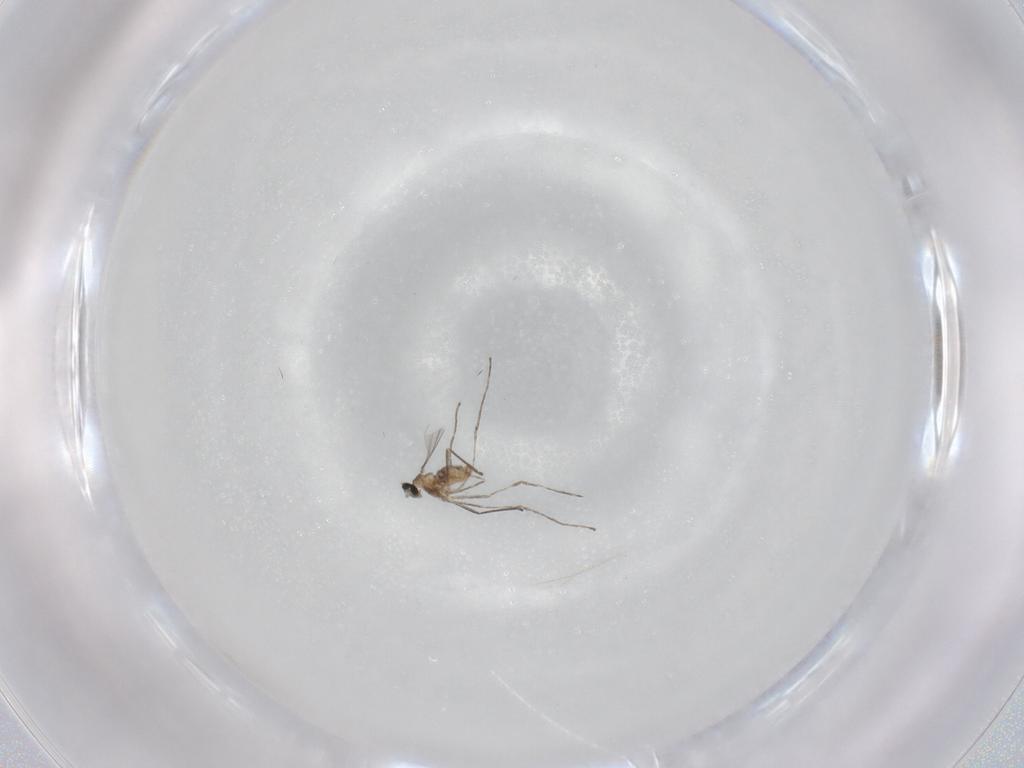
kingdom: Animalia
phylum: Arthropoda
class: Insecta
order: Diptera
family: Cecidomyiidae
